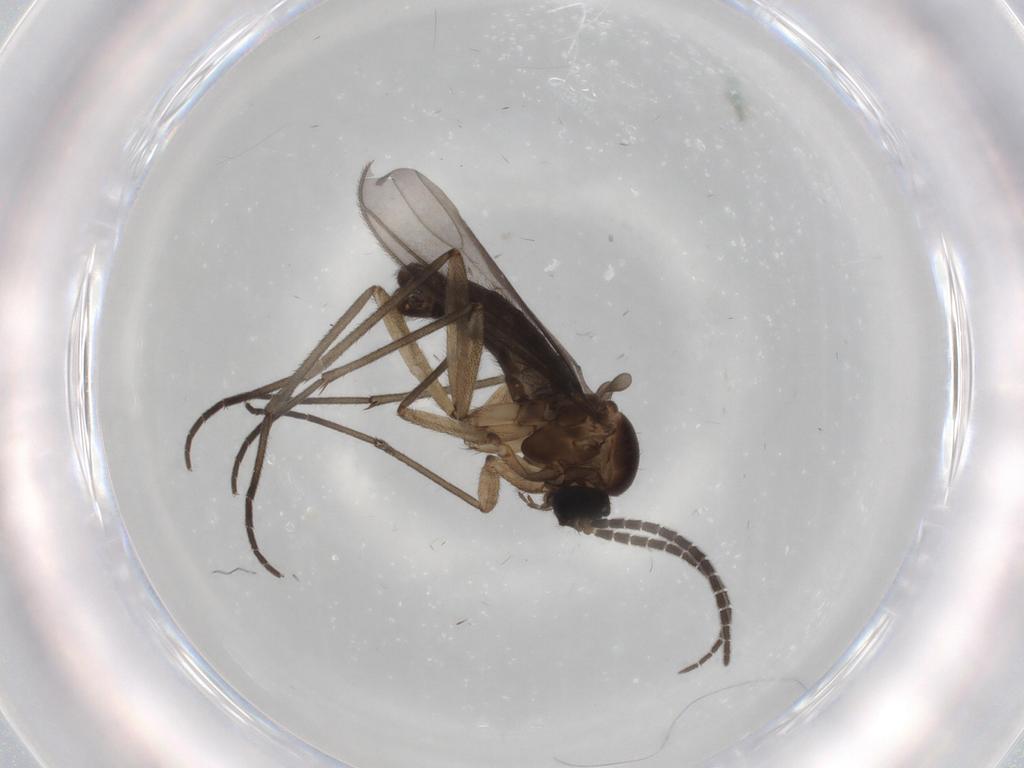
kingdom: Animalia
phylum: Arthropoda
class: Insecta
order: Diptera
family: Sciaridae
